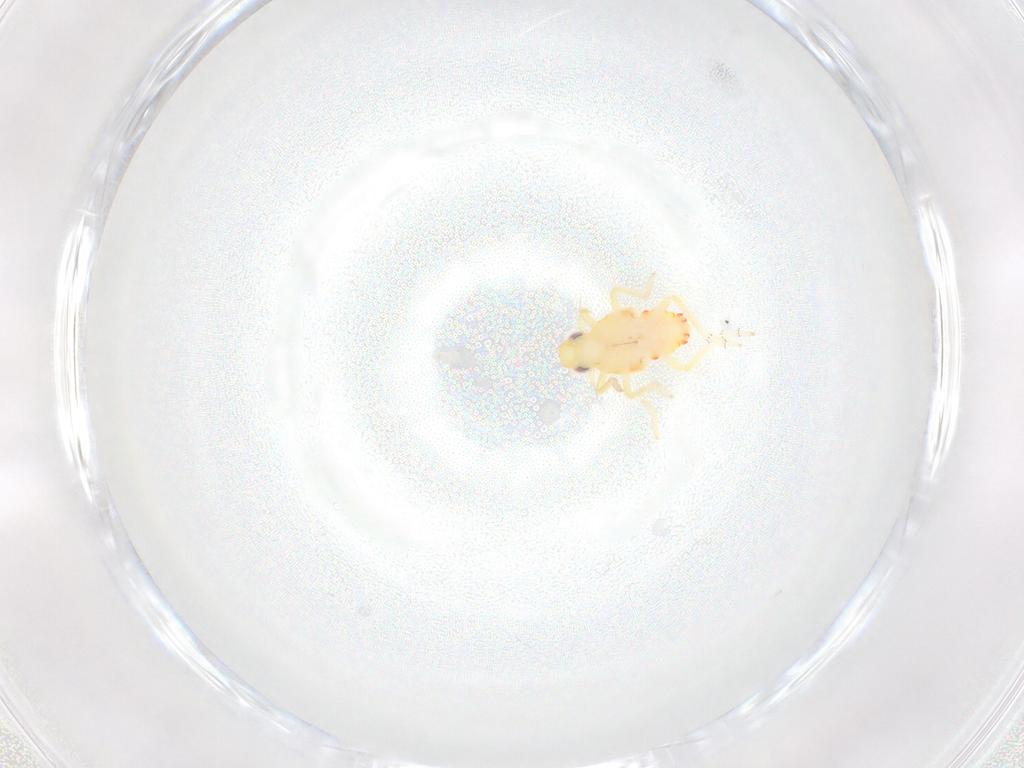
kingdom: Animalia
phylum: Arthropoda
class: Insecta
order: Hemiptera
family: Tropiduchidae
